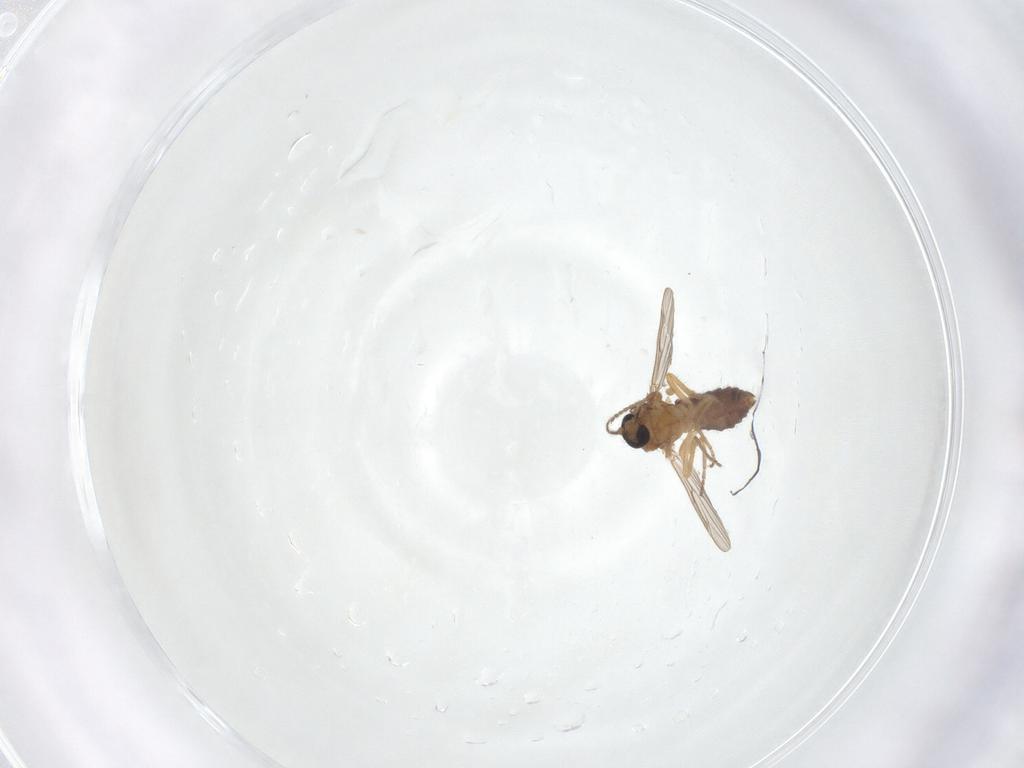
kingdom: Animalia
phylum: Arthropoda
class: Insecta
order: Diptera
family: Ceratopogonidae
